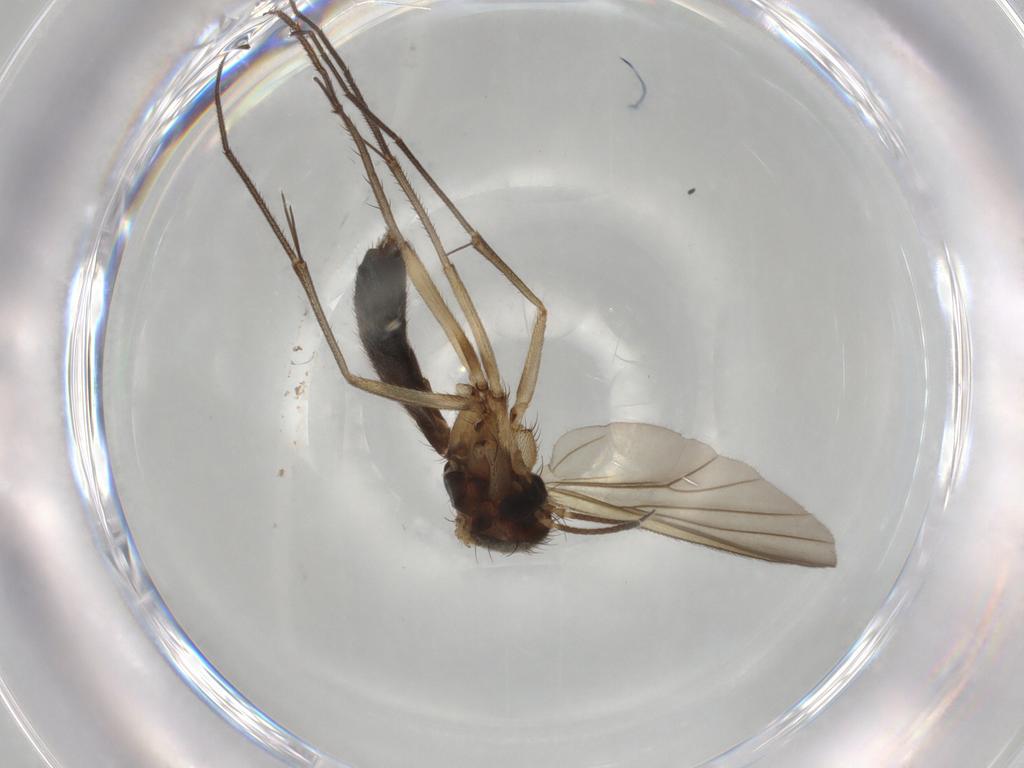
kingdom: Animalia
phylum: Arthropoda
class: Insecta
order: Diptera
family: Mycetophilidae
